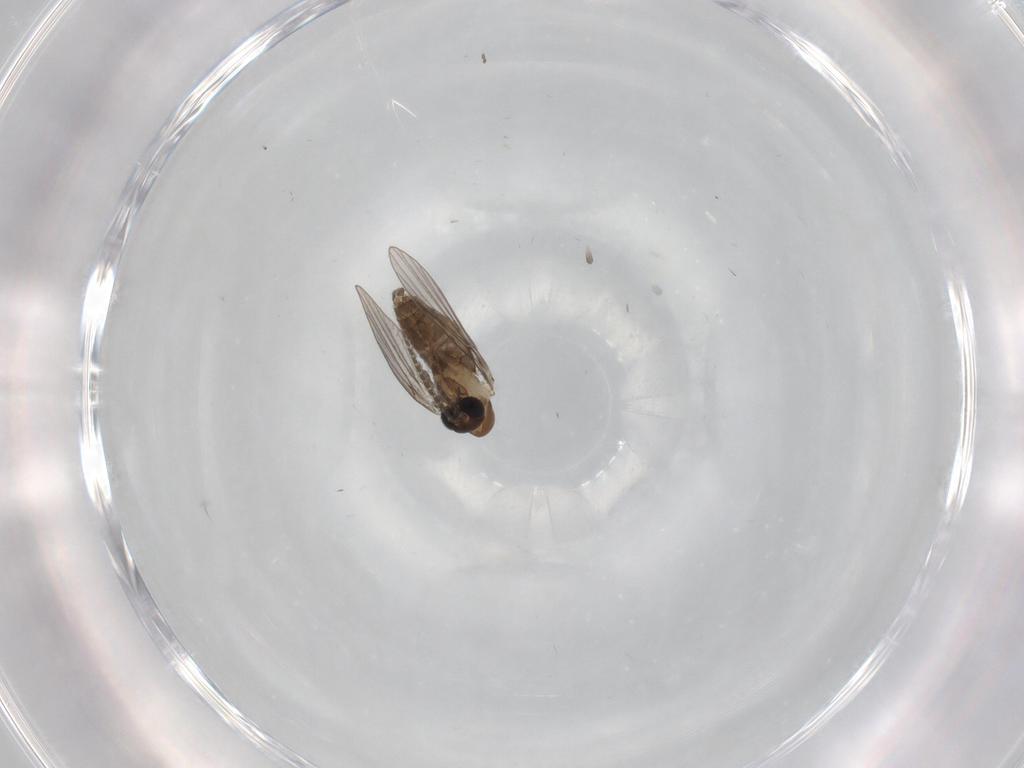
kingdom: Animalia
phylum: Arthropoda
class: Insecta
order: Diptera
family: Psychodidae
